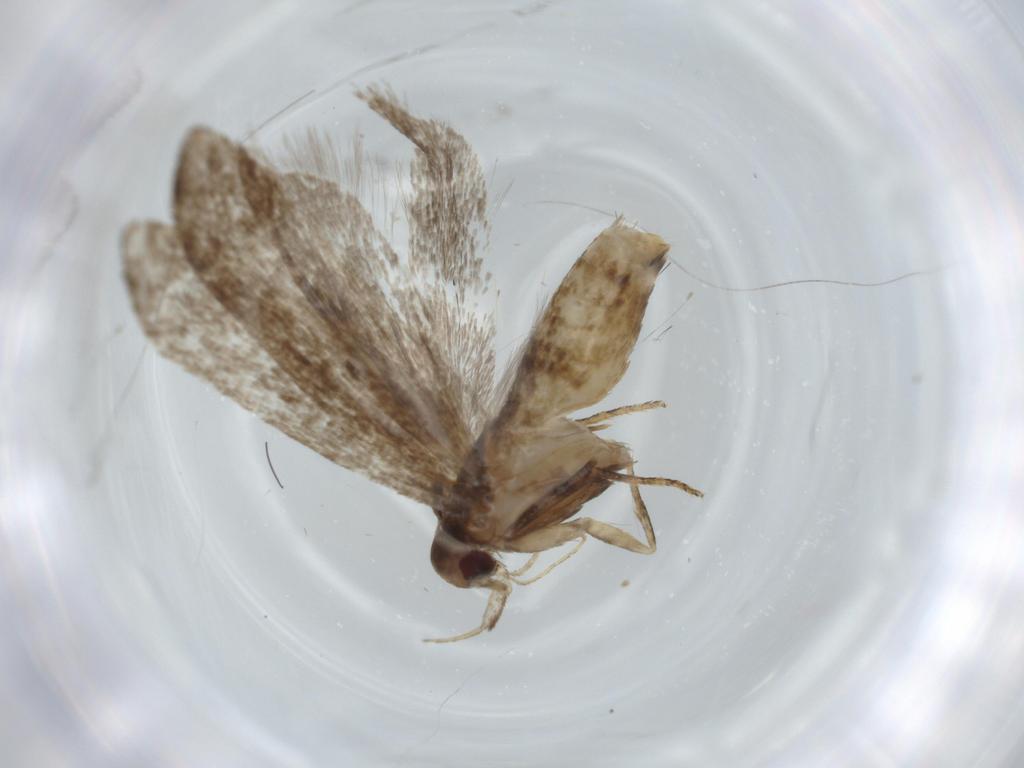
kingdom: Animalia
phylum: Arthropoda
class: Insecta
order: Lepidoptera
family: Gelechiidae
